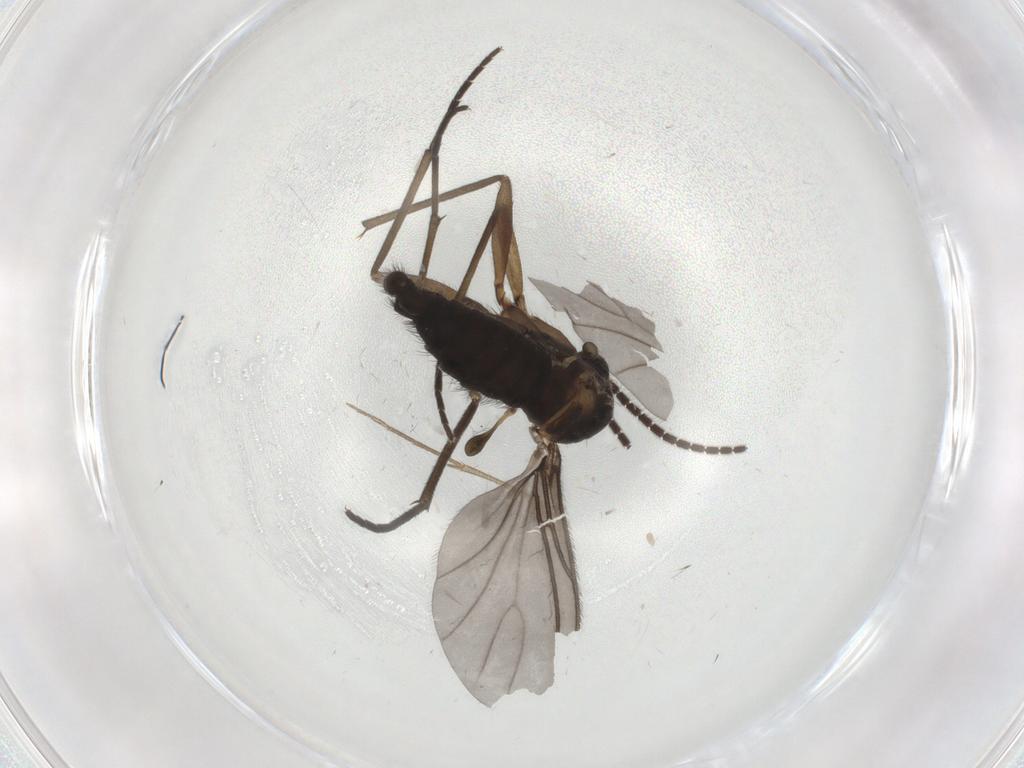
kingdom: Animalia
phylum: Arthropoda
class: Insecta
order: Diptera
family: Sciaridae
